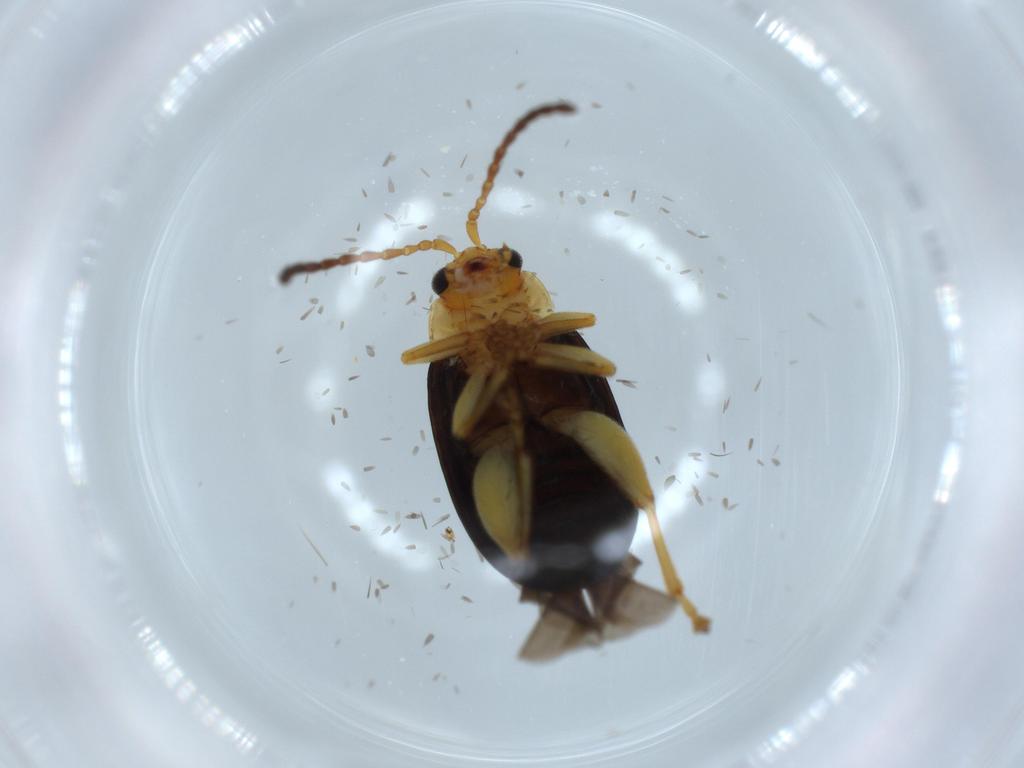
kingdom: Animalia
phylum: Arthropoda
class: Insecta
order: Coleoptera
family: Chrysomelidae
